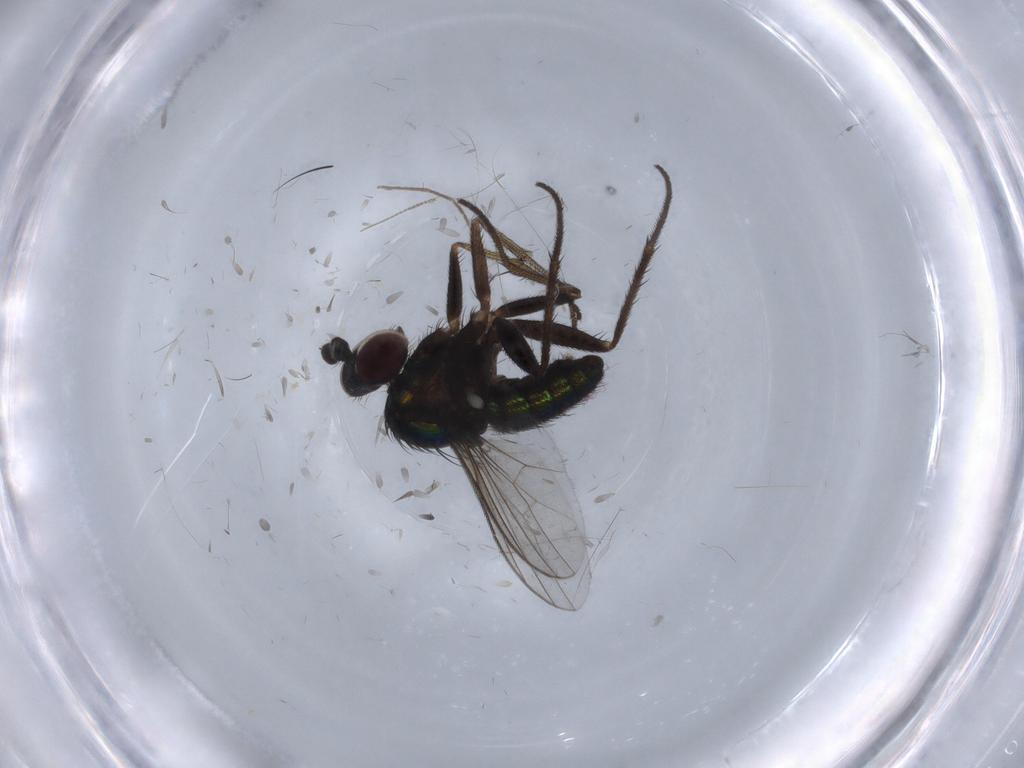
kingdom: Animalia
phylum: Arthropoda
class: Insecta
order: Diptera
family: Dolichopodidae
